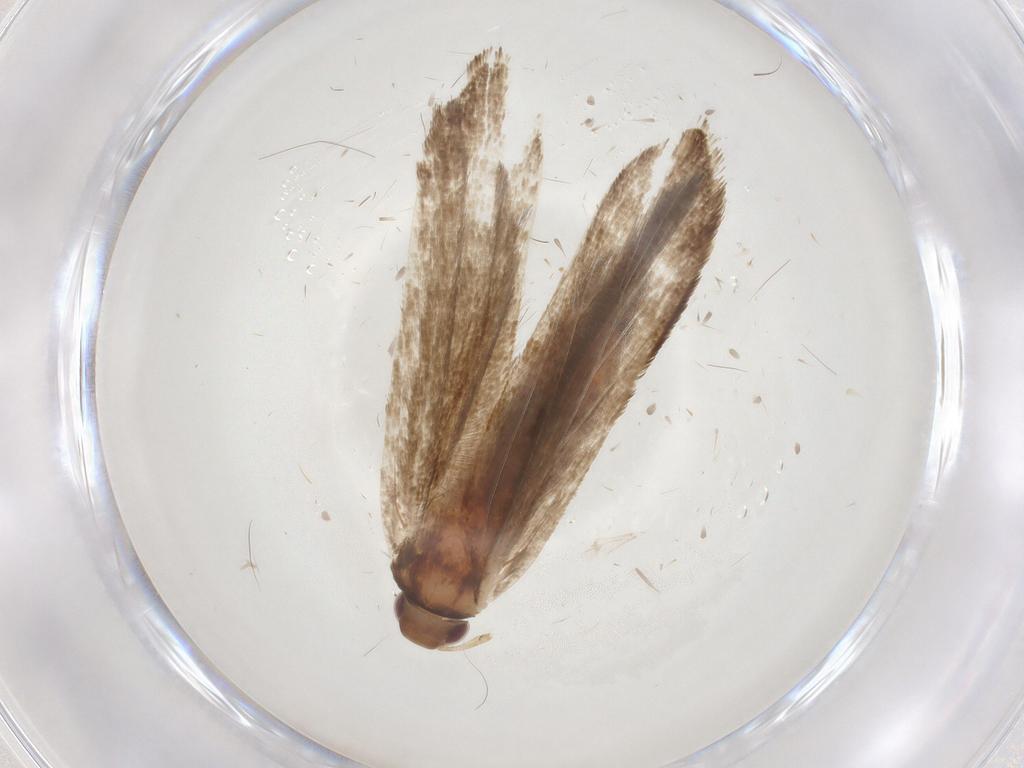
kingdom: Animalia
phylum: Arthropoda
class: Insecta
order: Lepidoptera
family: Gelechiidae
